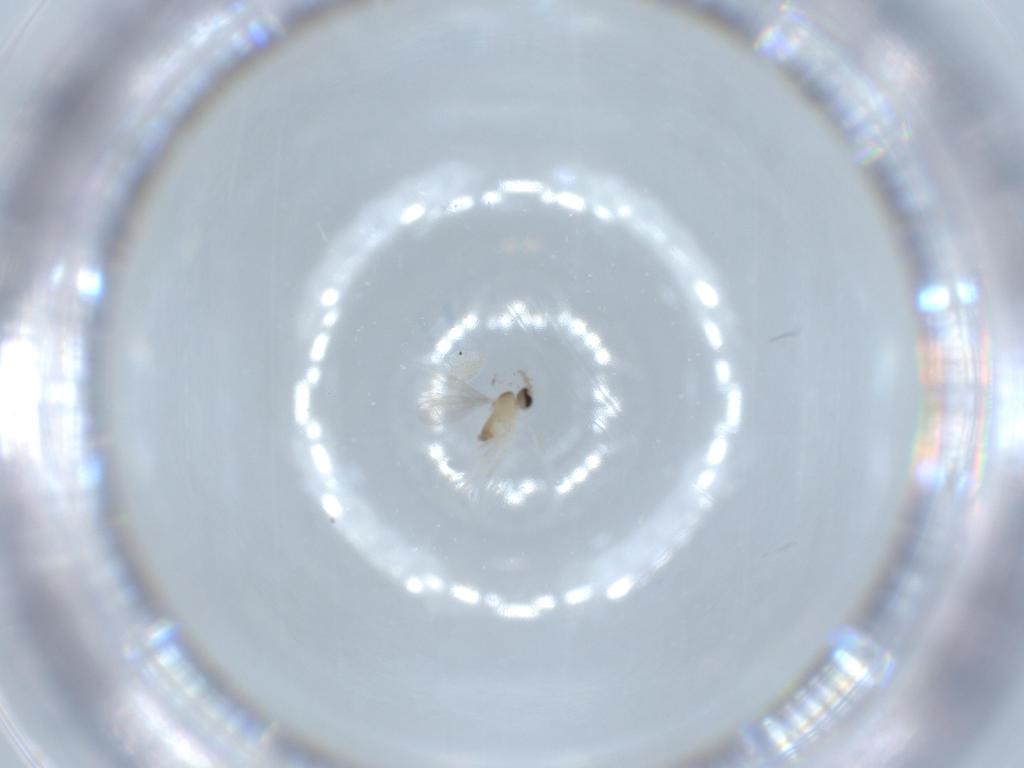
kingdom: Animalia
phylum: Arthropoda
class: Insecta
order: Diptera
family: Cecidomyiidae
